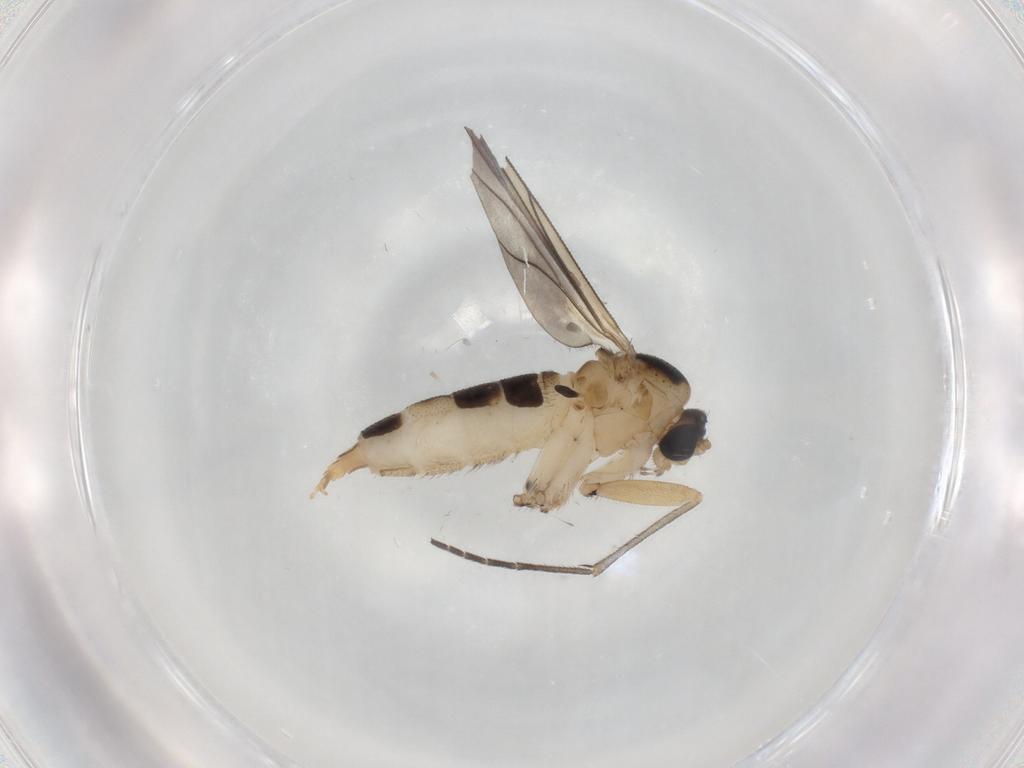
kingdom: Animalia
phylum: Arthropoda
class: Insecta
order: Diptera
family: Sciaridae
